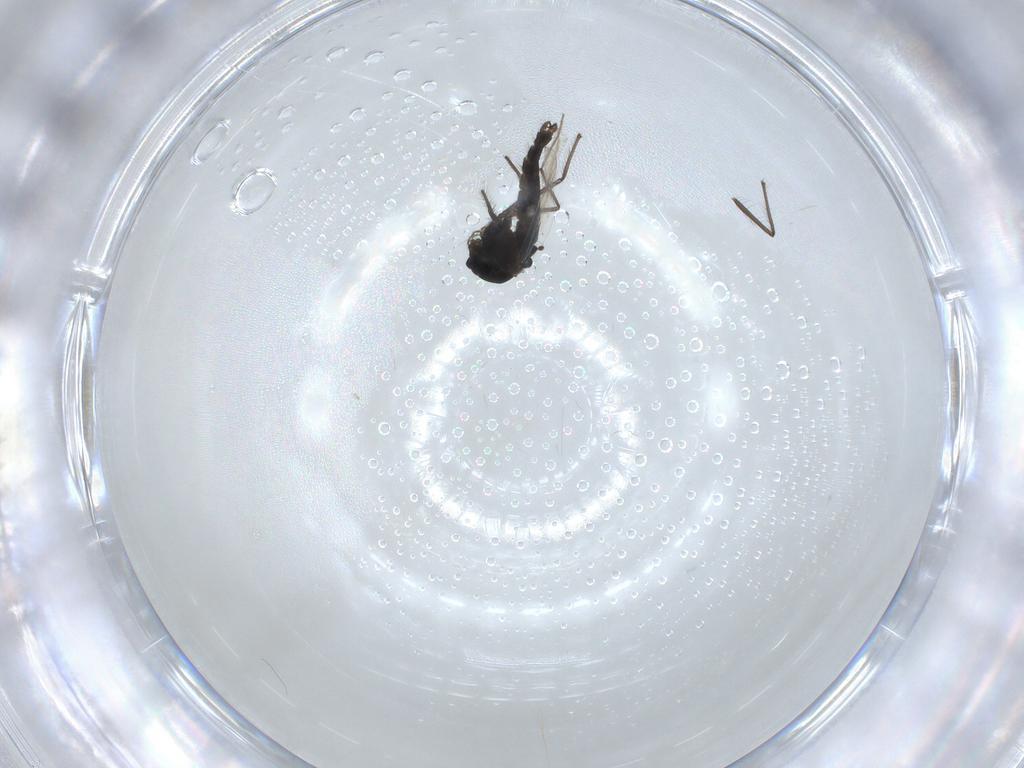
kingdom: Animalia
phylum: Arthropoda
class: Insecta
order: Diptera
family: Chironomidae
